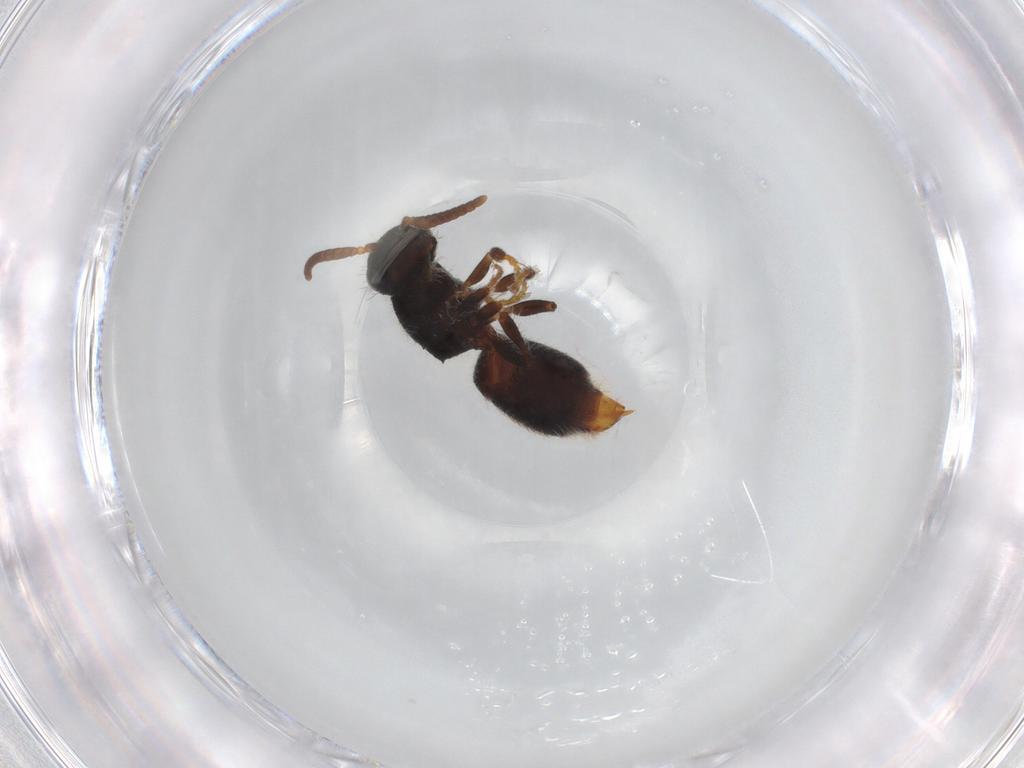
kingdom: Animalia
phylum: Arthropoda
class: Insecta
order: Hymenoptera
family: Mutillidae
